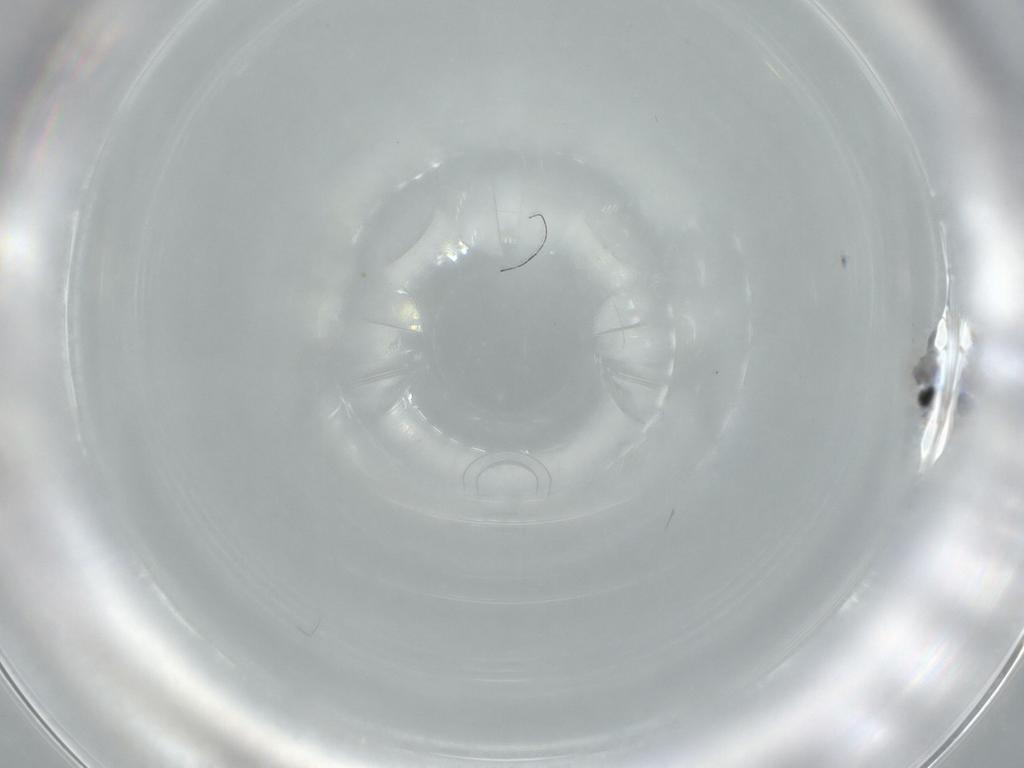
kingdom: Animalia
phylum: Arthropoda
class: Insecta
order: Diptera
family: Cecidomyiidae
